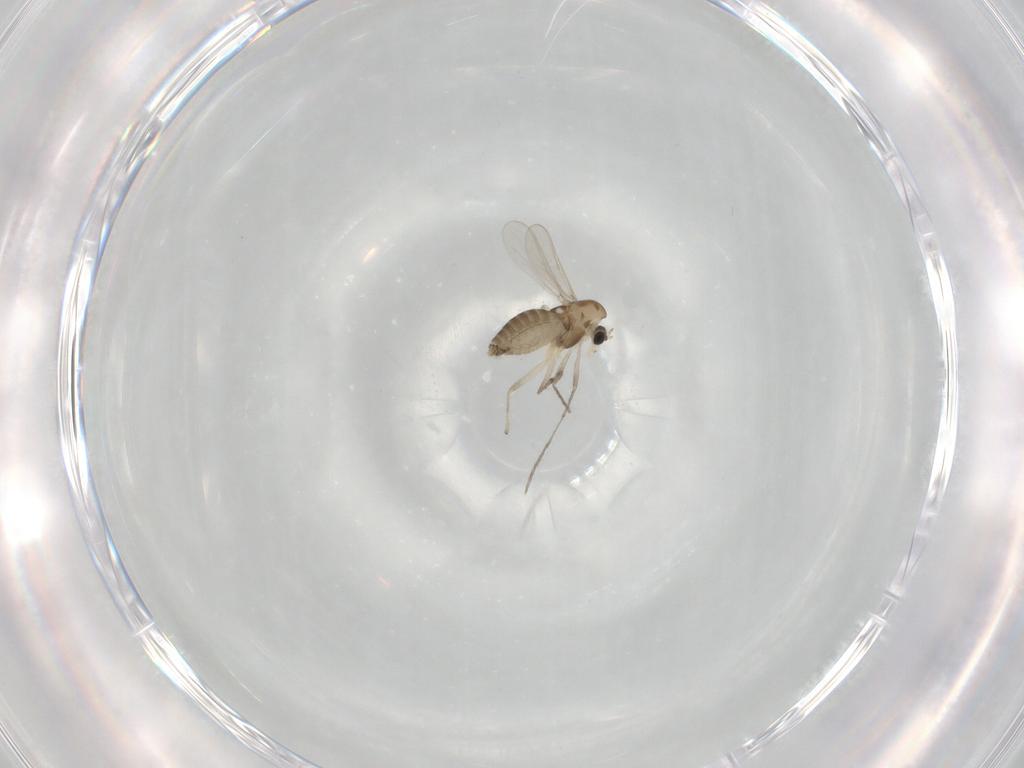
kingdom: Animalia
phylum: Arthropoda
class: Insecta
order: Diptera
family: Chironomidae
